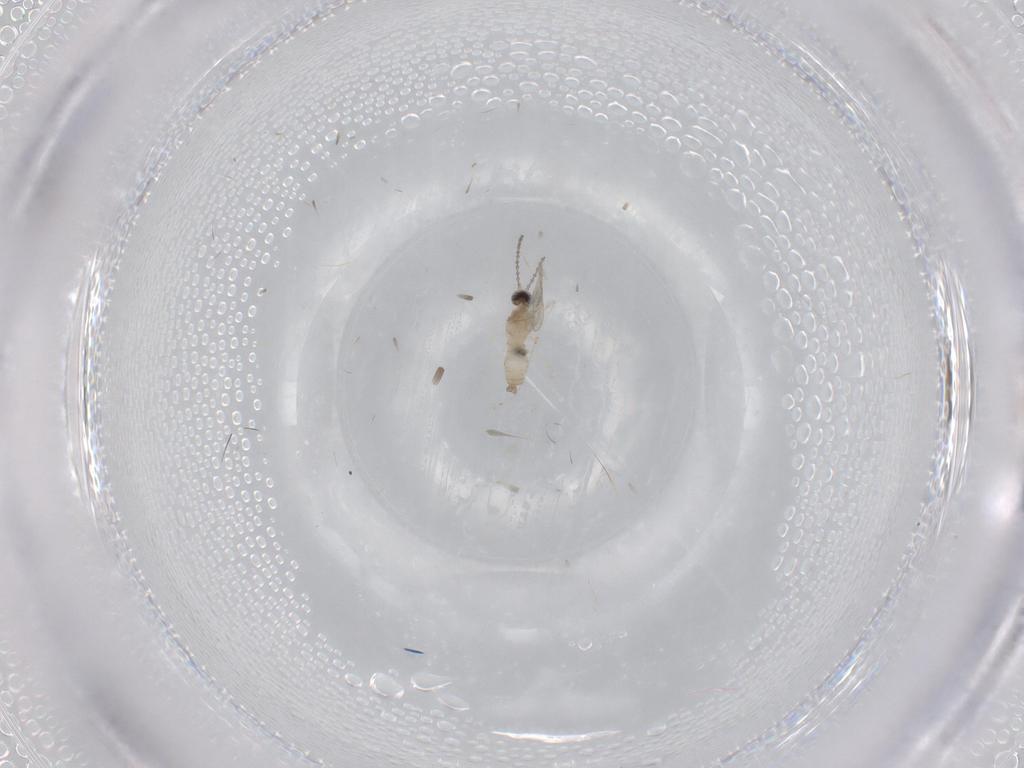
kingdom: Animalia
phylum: Arthropoda
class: Insecta
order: Diptera
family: Cecidomyiidae
